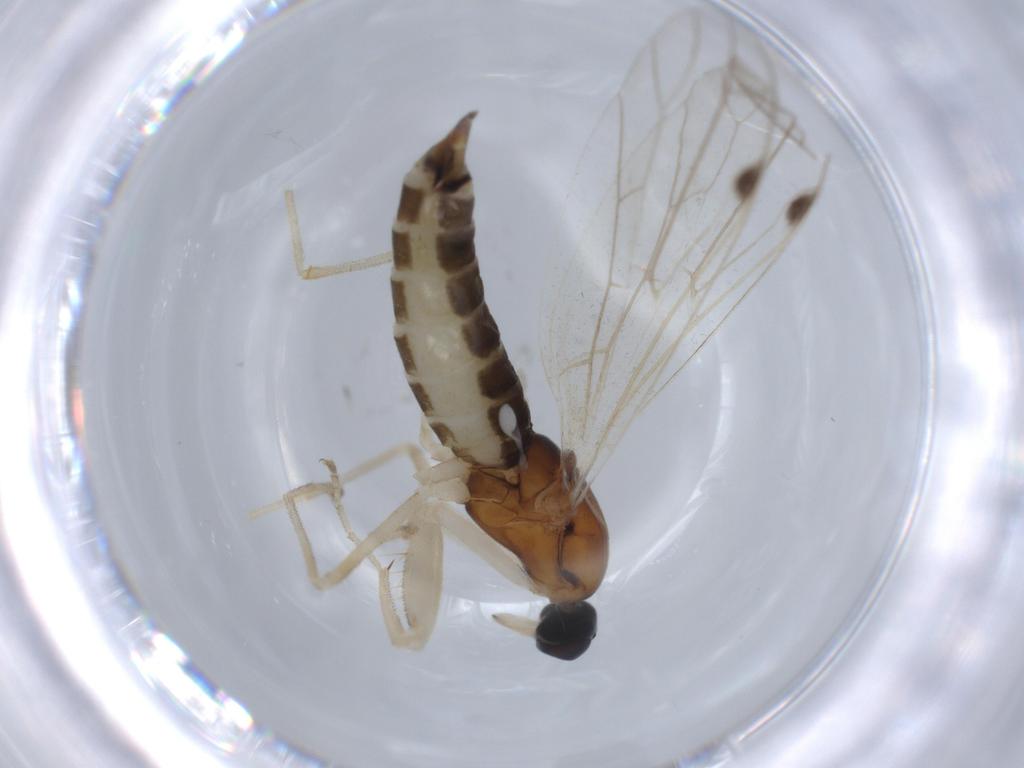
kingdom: Animalia
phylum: Arthropoda
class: Insecta
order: Diptera
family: Empididae
